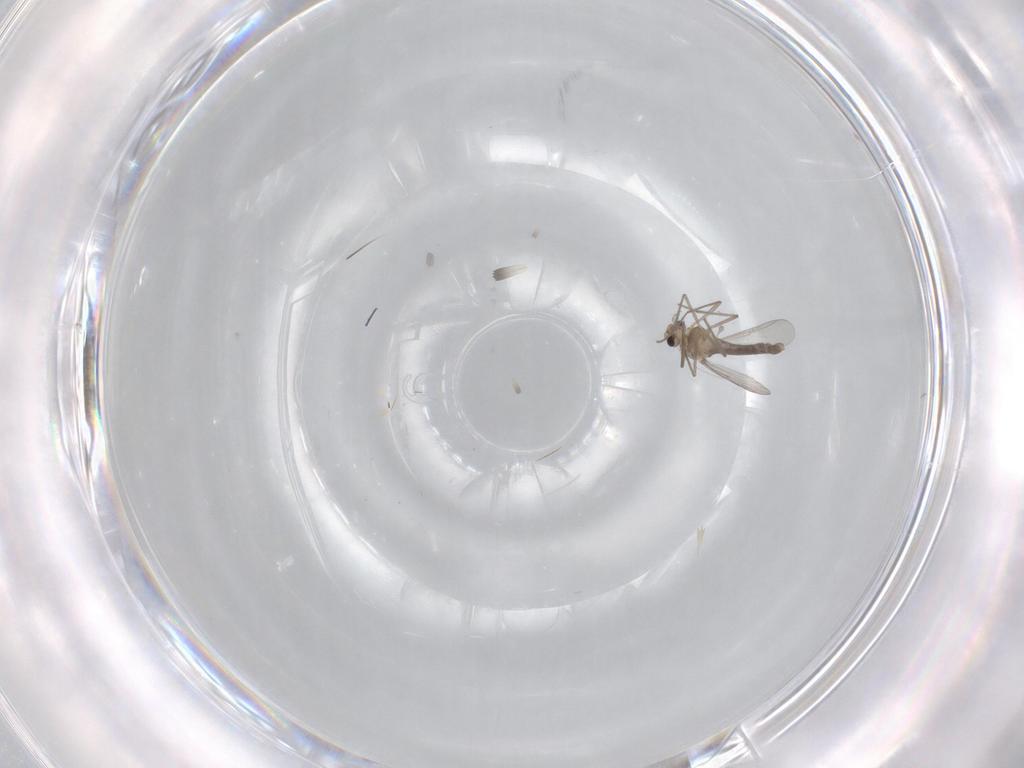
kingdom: Animalia
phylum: Arthropoda
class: Insecta
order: Diptera
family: Chironomidae
